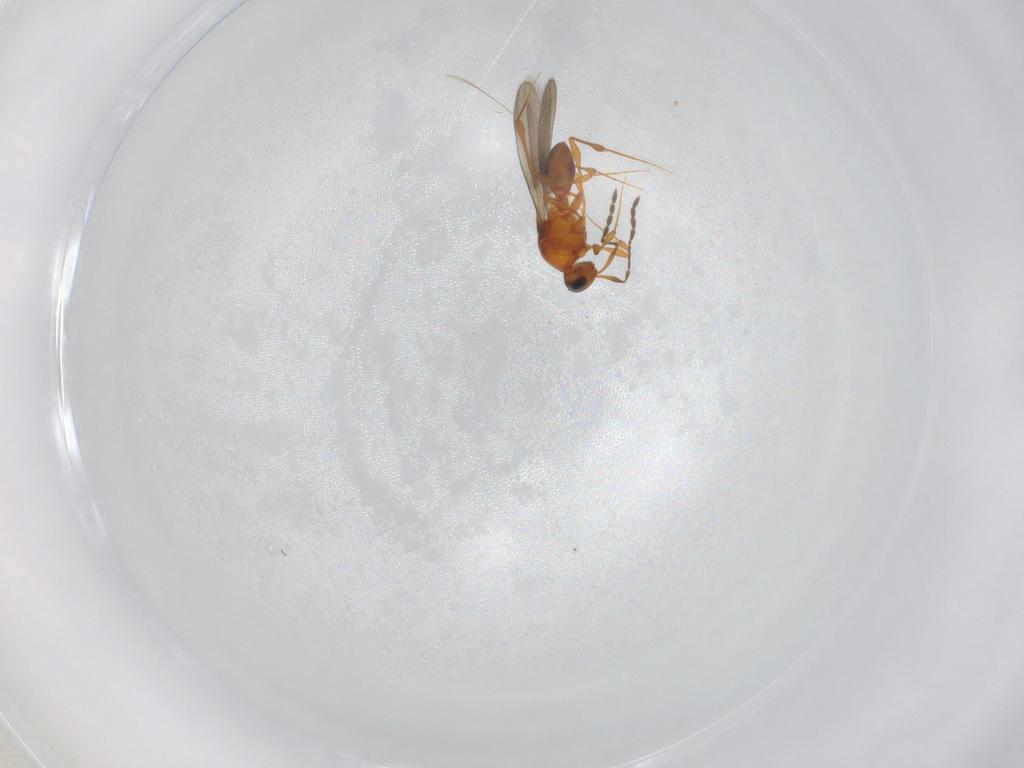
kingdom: Animalia
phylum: Arthropoda
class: Insecta
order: Hymenoptera
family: Platygastridae
